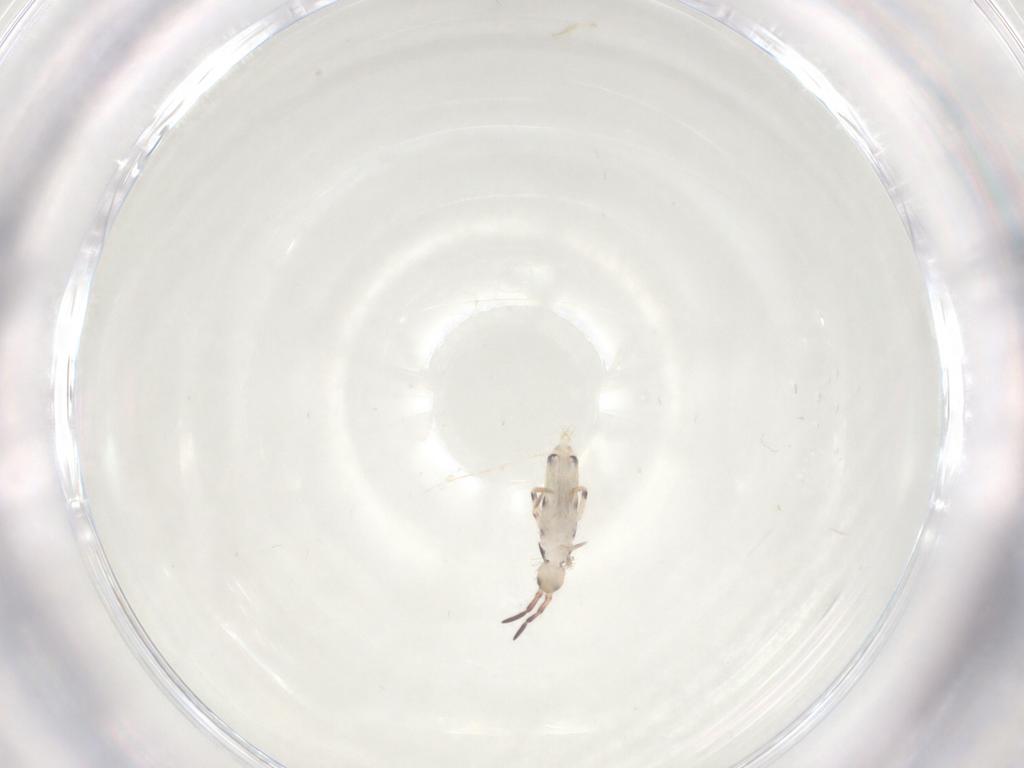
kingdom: Animalia
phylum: Arthropoda
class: Collembola
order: Entomobryomorpha
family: Entomobryidae
